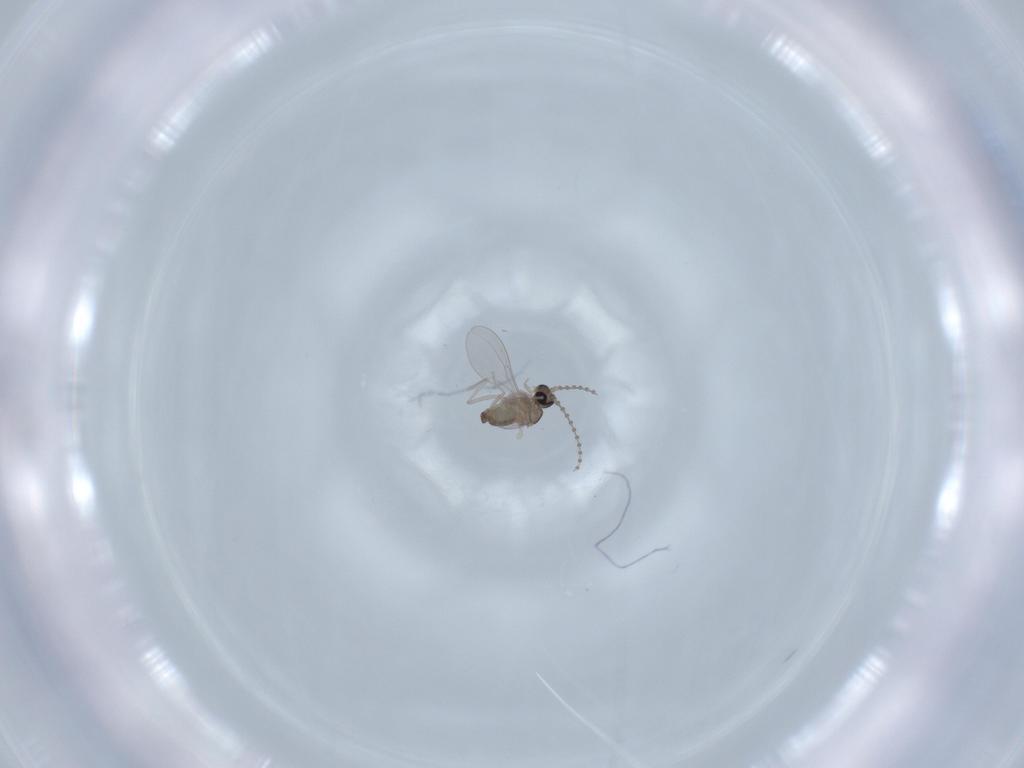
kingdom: Animalia
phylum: Arthropoda
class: Insecta
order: Diptera
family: Cecidomyiidae
